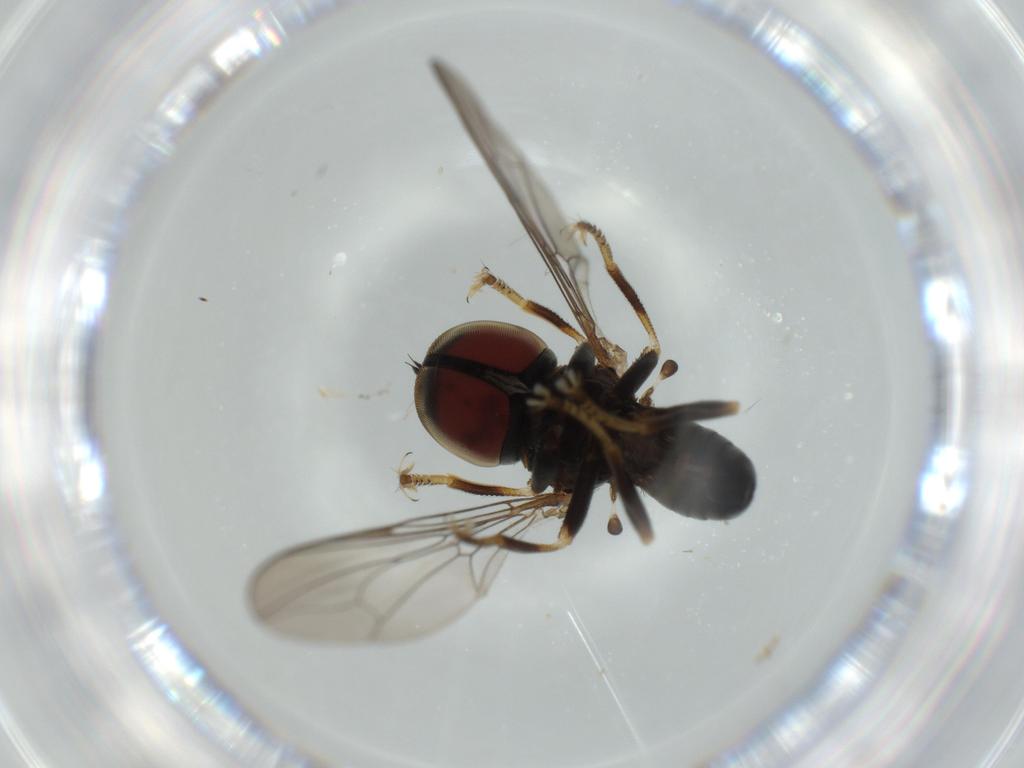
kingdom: Animalia
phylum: Arthropoda
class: Insecta
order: Diptera
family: Pipunculidae
